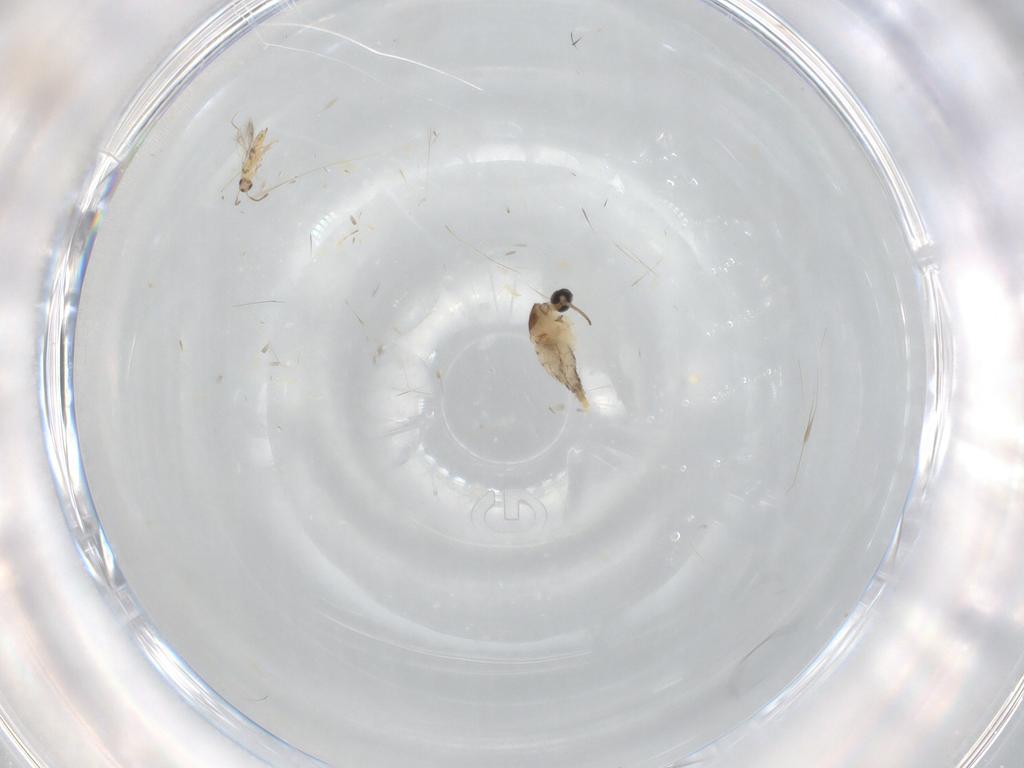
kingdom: Animalia
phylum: Arthropoda
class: Insecta
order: Diptera
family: Cecidomyiidae
